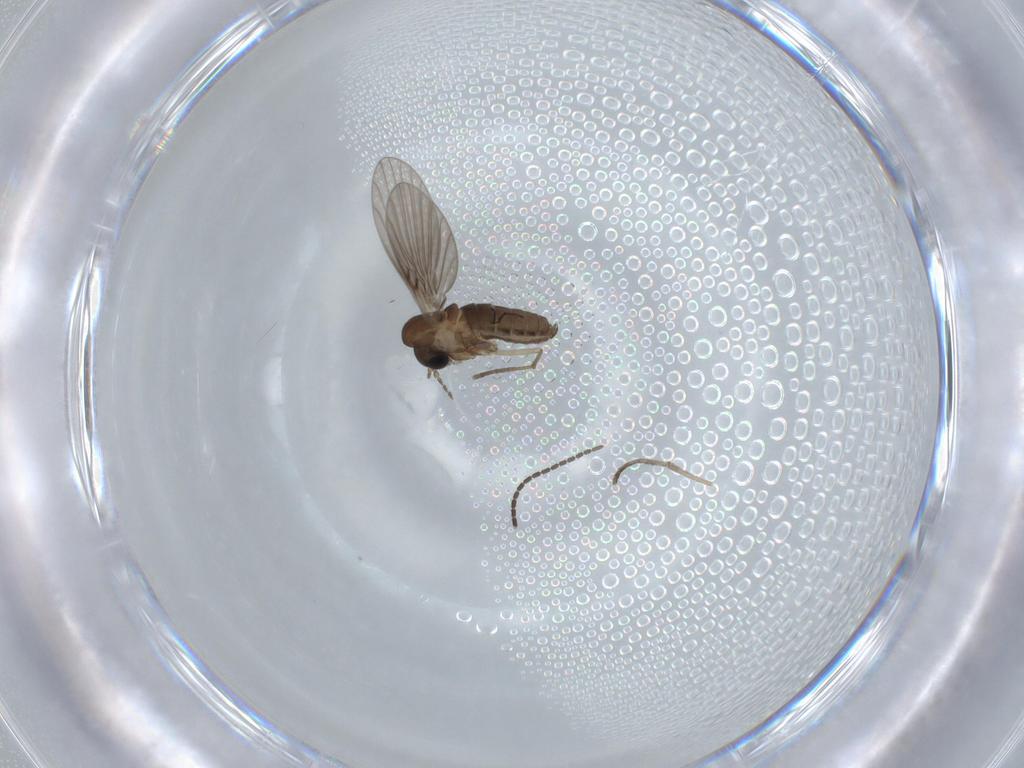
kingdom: Animalia
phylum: Arthropoda
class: Insecta
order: Diptera
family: Psychodidae
